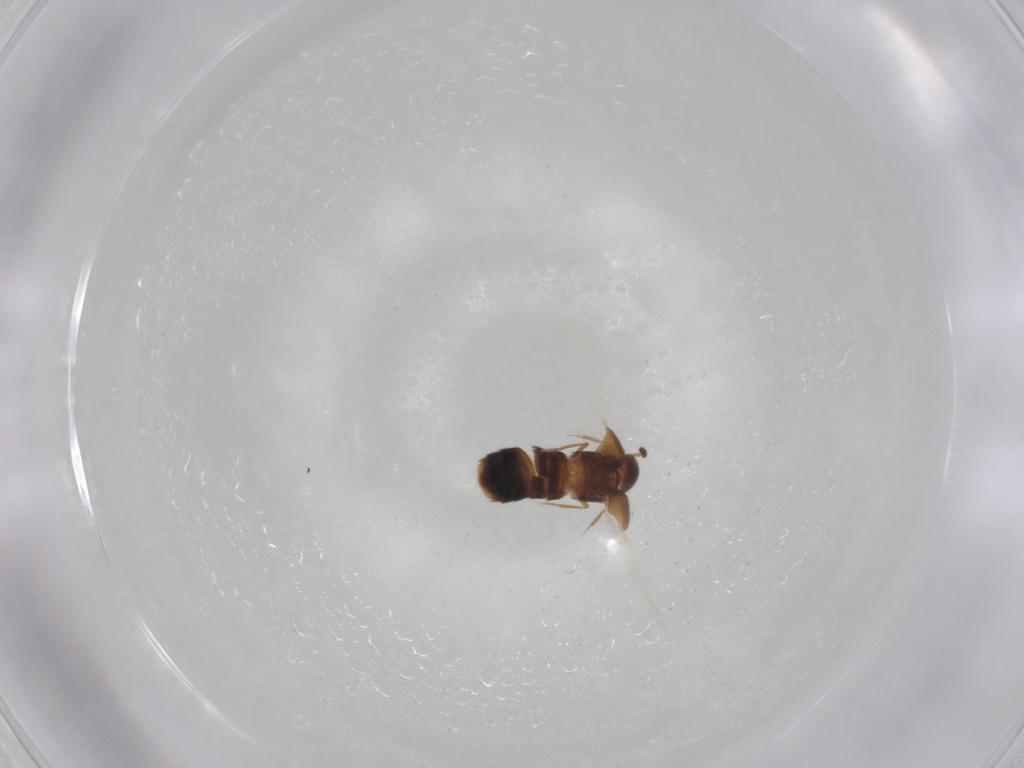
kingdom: Animalia
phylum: Arthropoda
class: Insecta
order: Coleoptera
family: Staphylinidae
